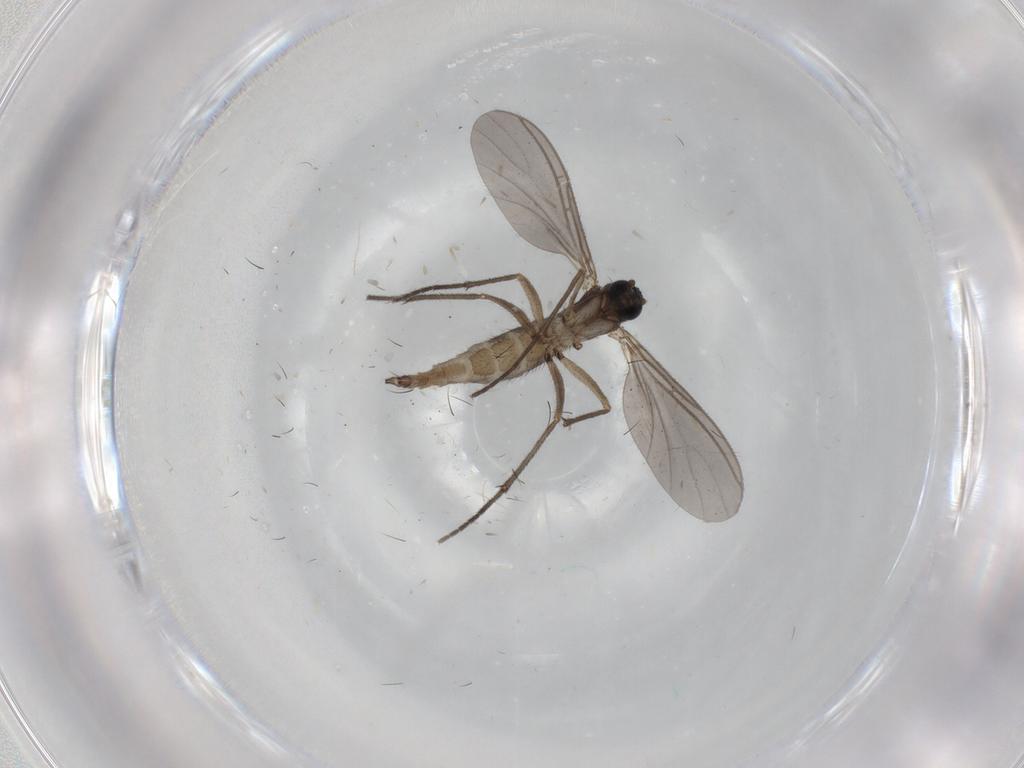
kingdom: Animalia
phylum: Arthropoda
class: Insecta
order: Diptera
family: Sciaridae
